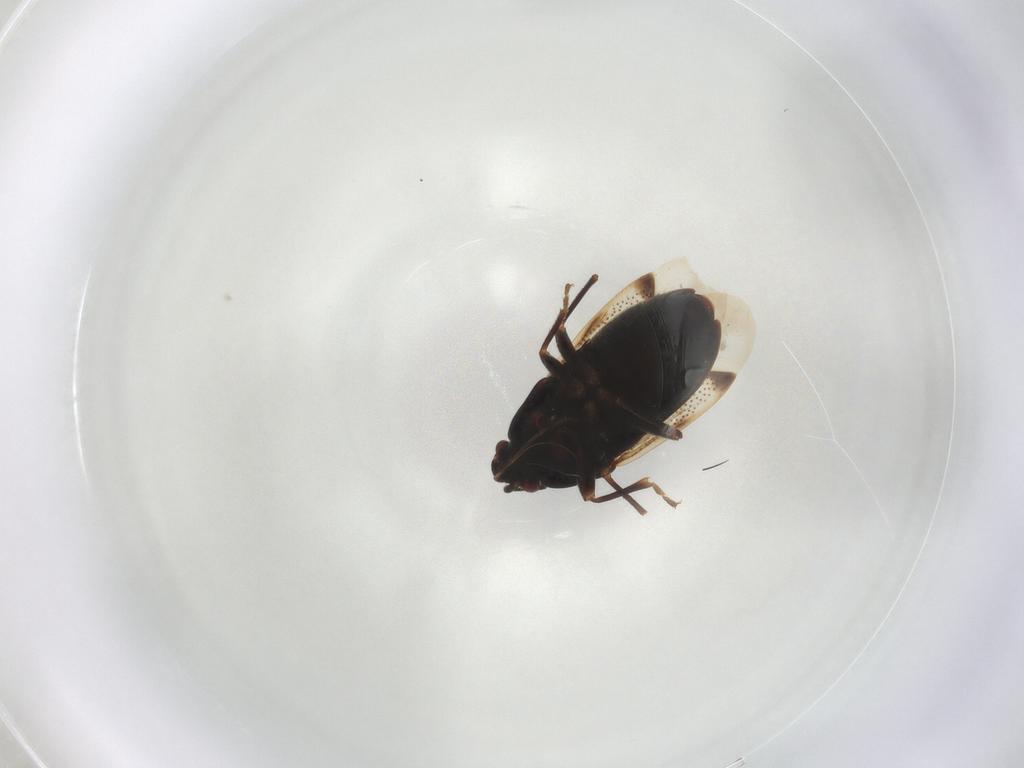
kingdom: Animalia
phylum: Arthropoda
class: Insecta
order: Hemiptera
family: Rhyparochromidae
